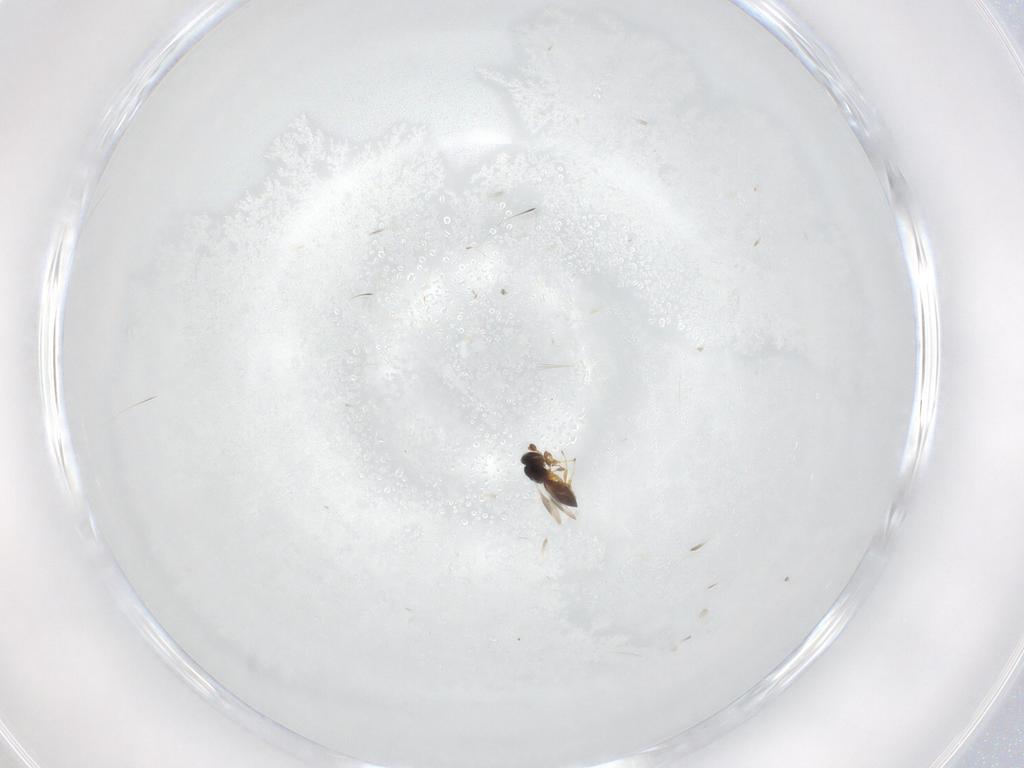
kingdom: Animalia
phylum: Arthropoda
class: Insecta
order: Hymenoptera
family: Platygastridae
